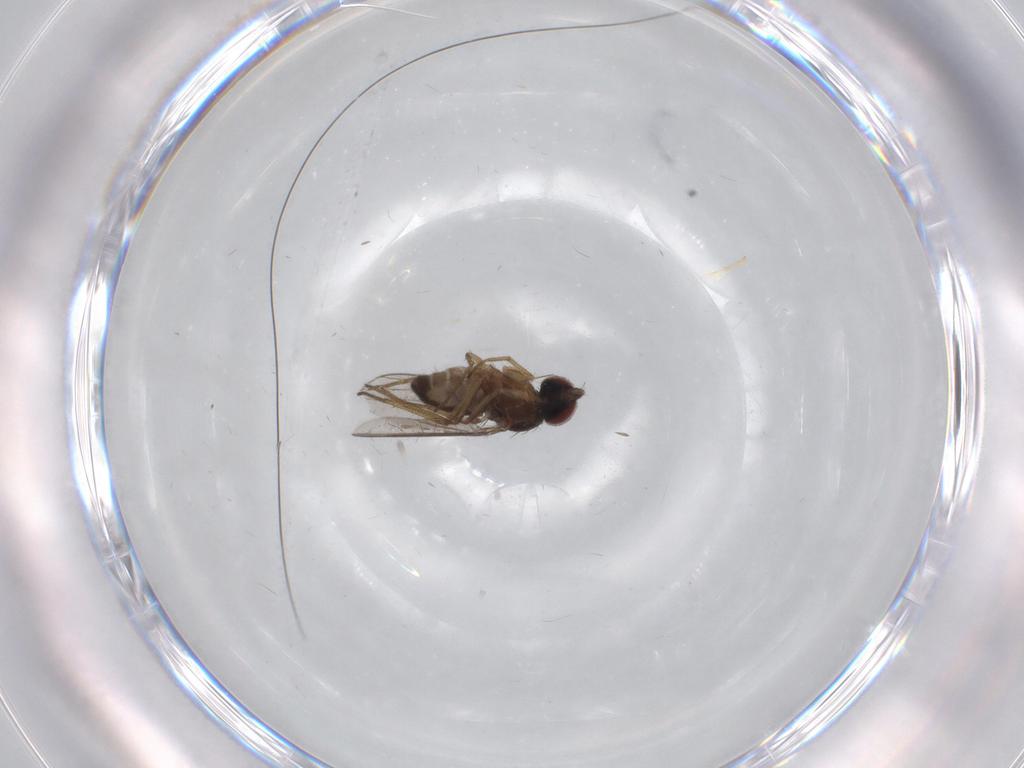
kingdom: Animalia
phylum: Arthropoda
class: Insecta
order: Diptera
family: Dolichopodidae
